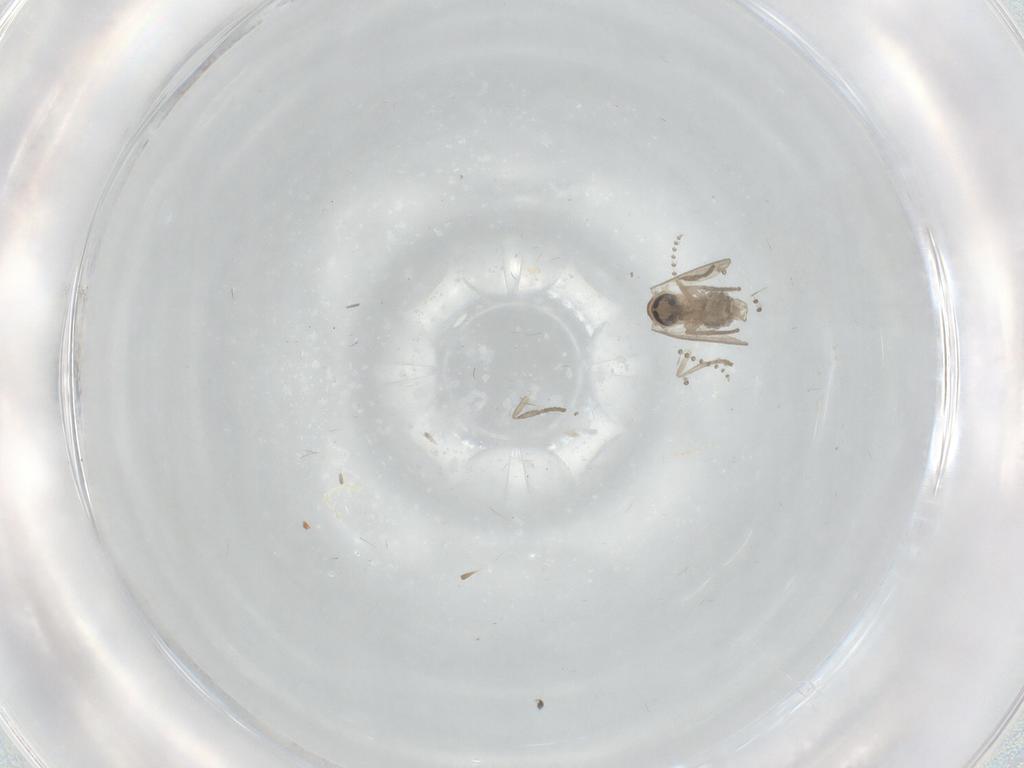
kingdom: Animalia
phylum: Arthropoda
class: Insecta
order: Diptera
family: Psychodidae
